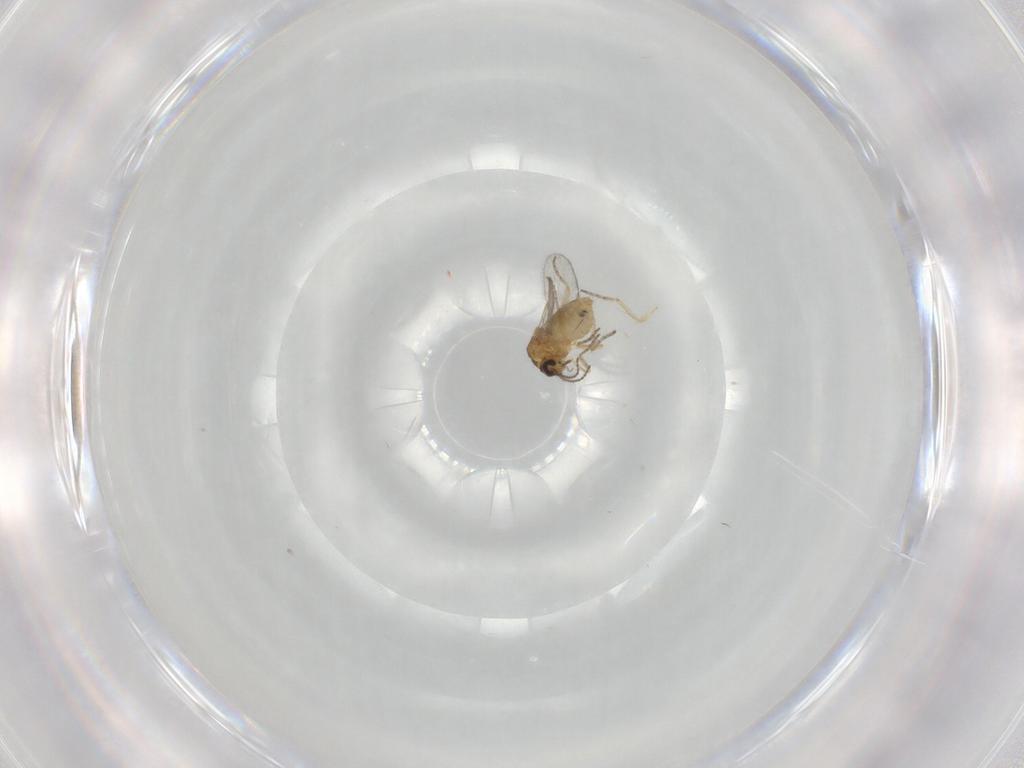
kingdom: Animalia
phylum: Arthropoda
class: Insecta
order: Diptera
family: Ceratopogonidae
